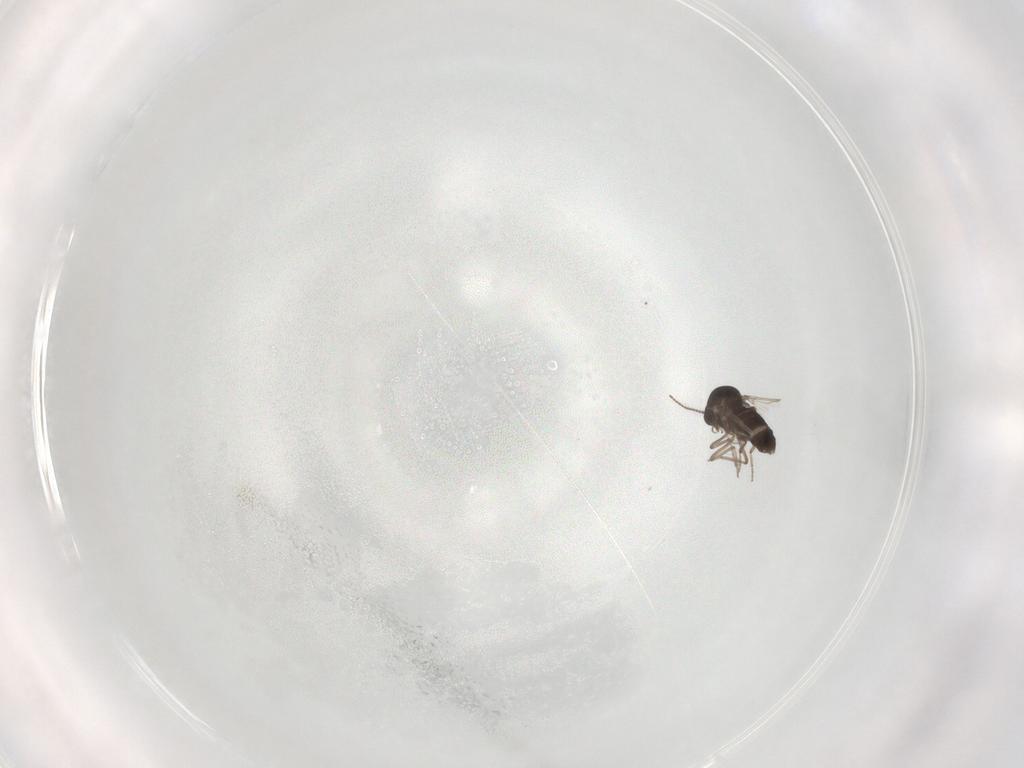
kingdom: Animalia
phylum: Arthropoda
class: Insecta
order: Diptera
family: Ceratopogonidae
